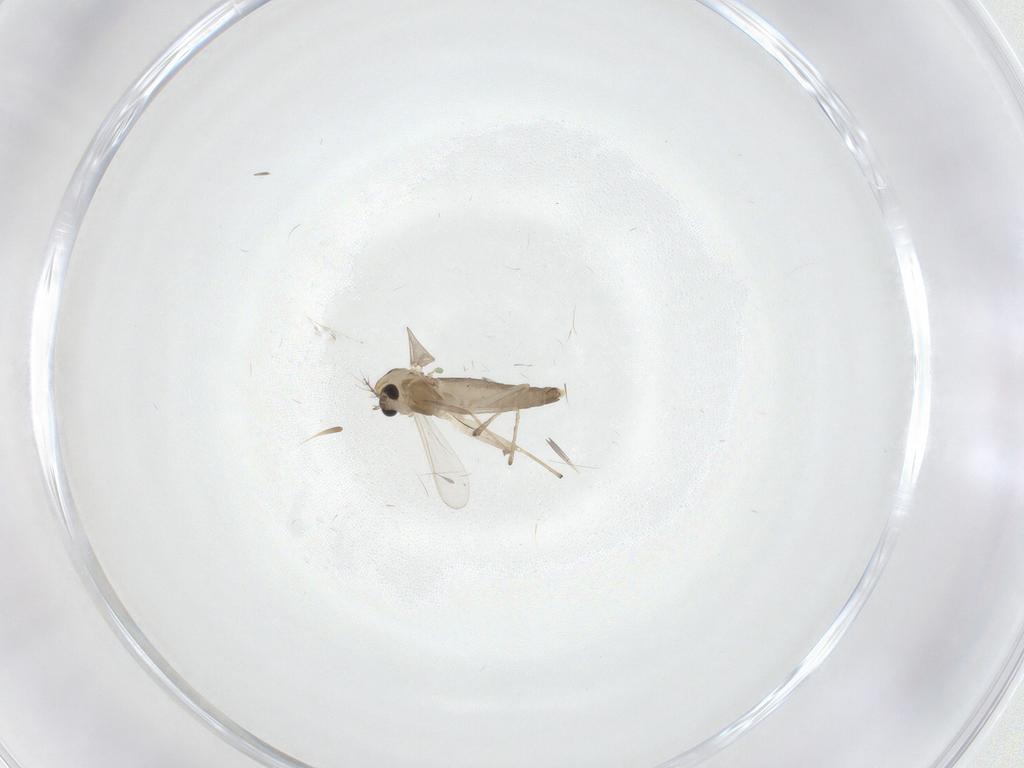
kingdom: Animalia
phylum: Arthropoda
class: Insecta
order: Diptera
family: Chironomidae
